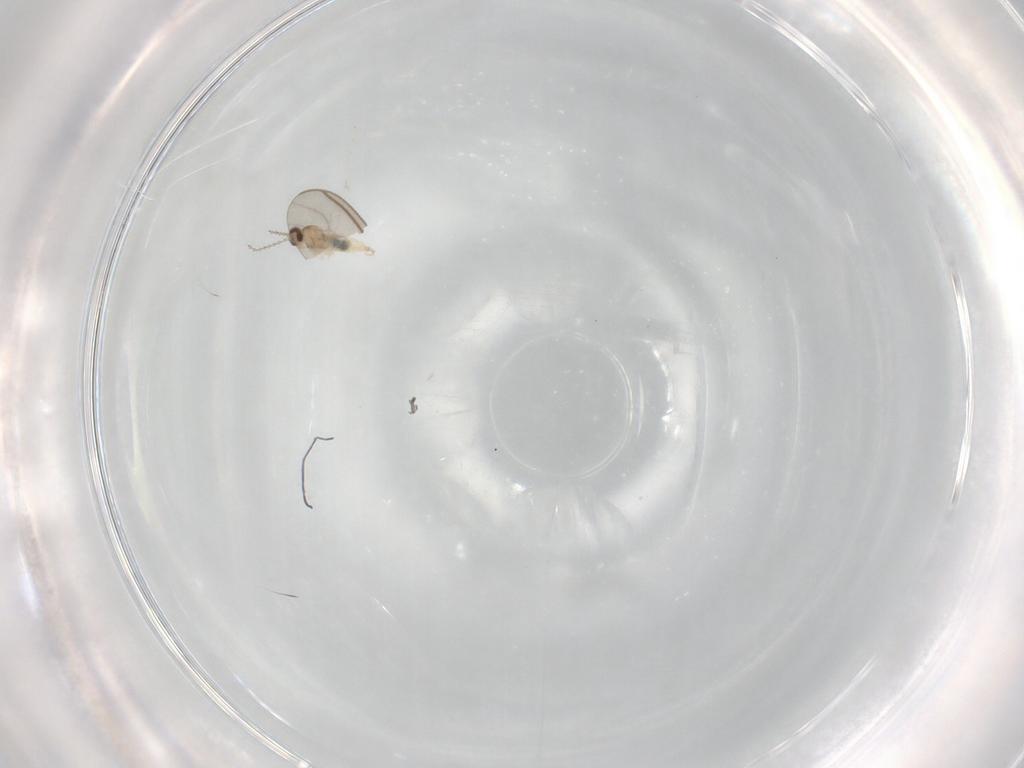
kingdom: Animalia
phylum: Arthropoda
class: Insecta
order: Diptera
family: Cecidomyiidae
